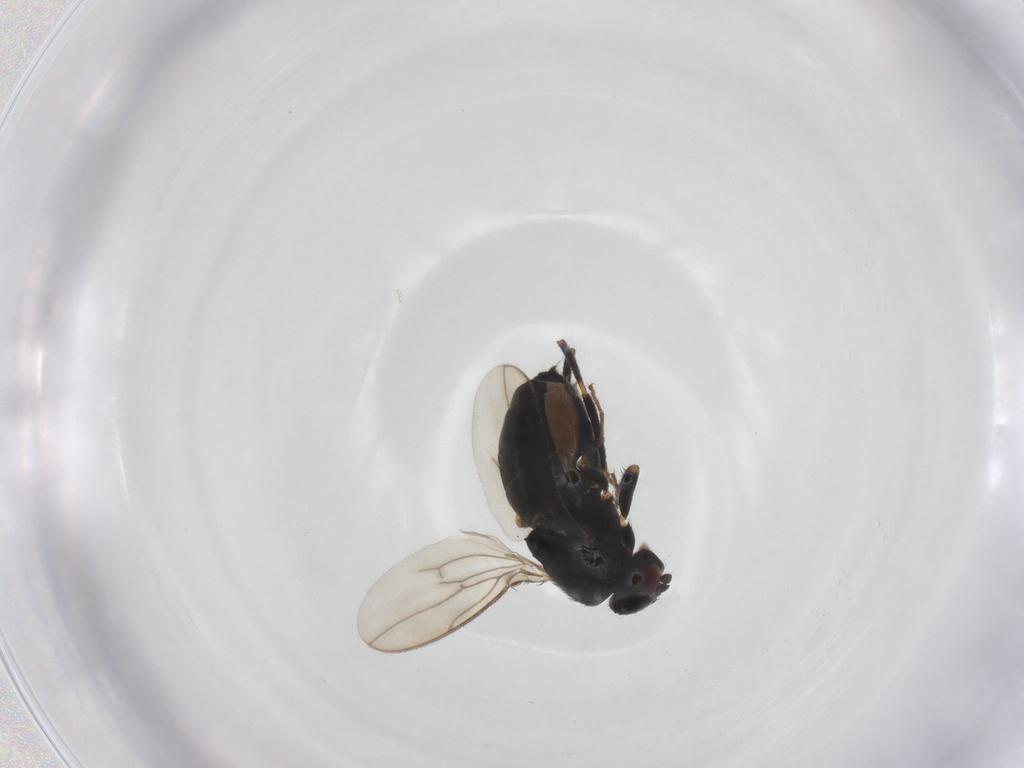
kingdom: Animalia
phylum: Arthropoda
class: Insecta
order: Diptera
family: Sphaeroceridae
